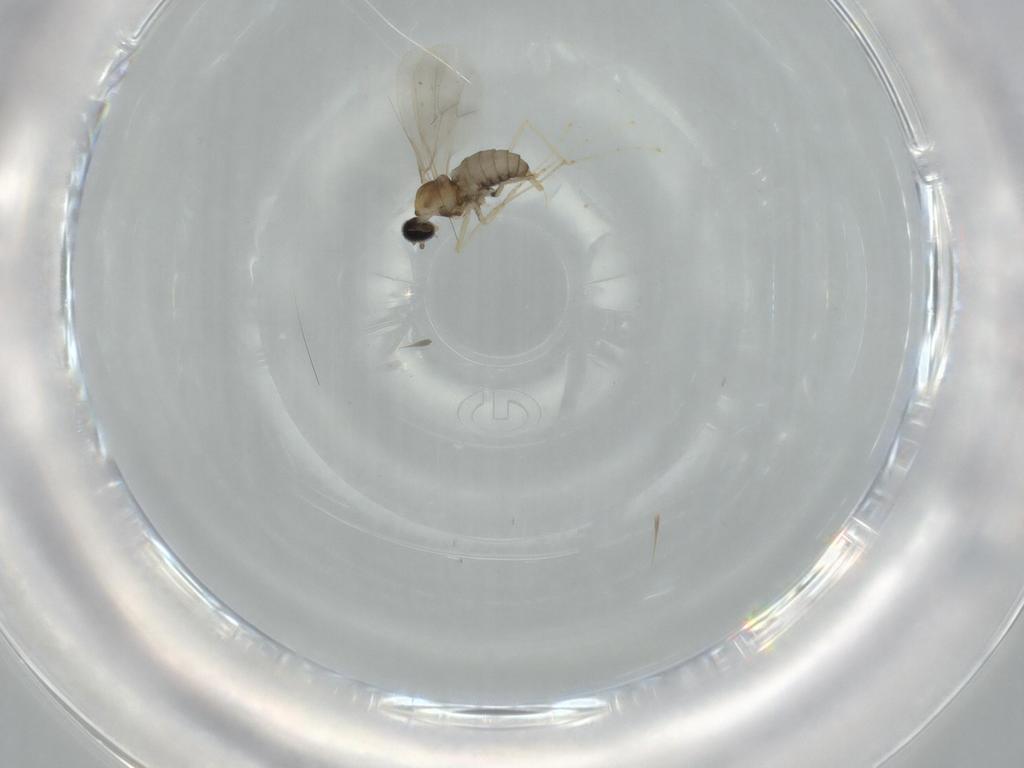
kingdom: Animalia
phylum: Arthropoda
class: Insecta
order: Diptera
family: Cecidomyiidae
